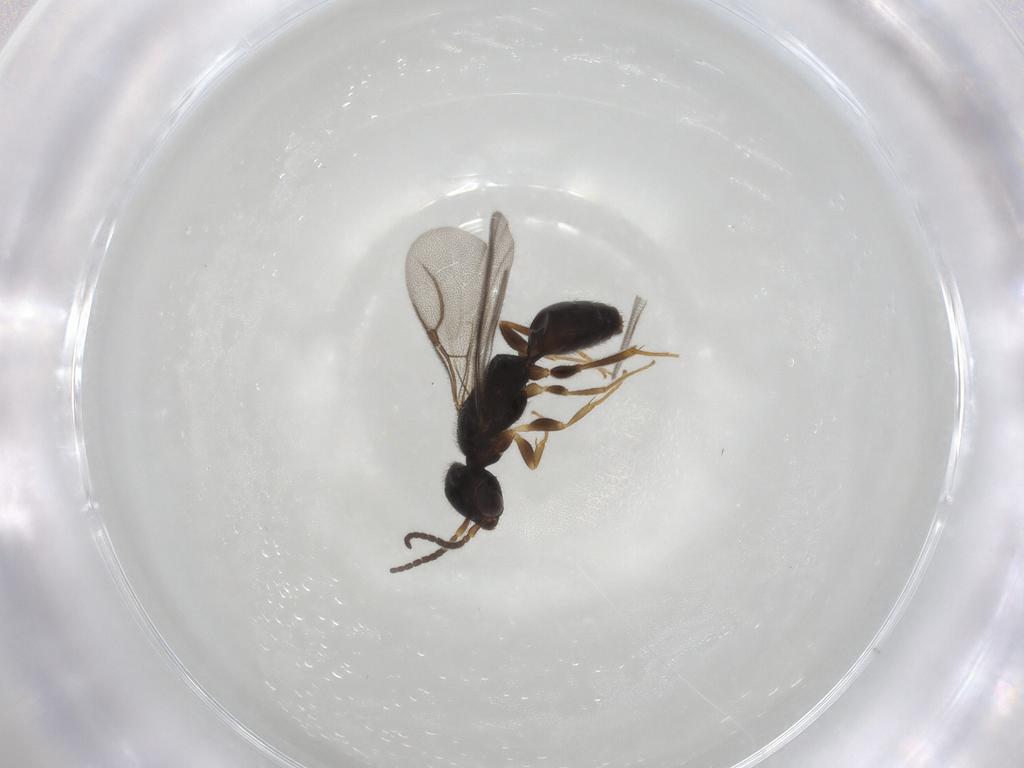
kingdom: Animalia
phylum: Arthropoda
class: Insecta
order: Hymenoptera
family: Bethylidae
